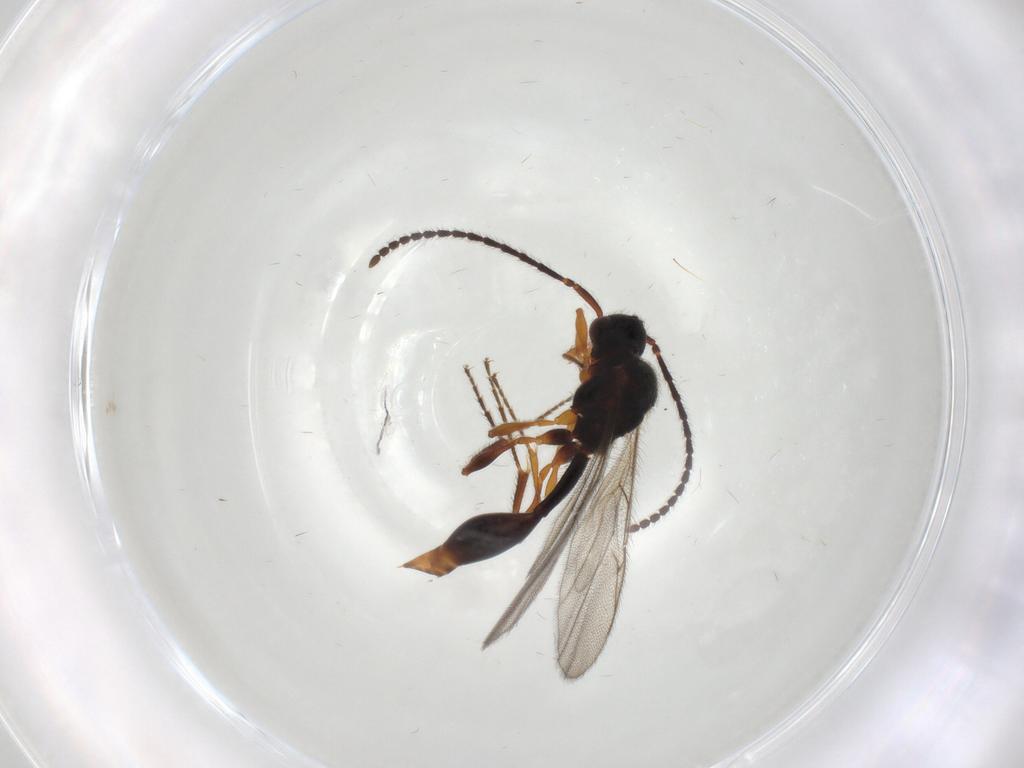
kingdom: Animalia
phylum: Arthropoda
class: Insecta
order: Hymenoptera
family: Diapriidae
